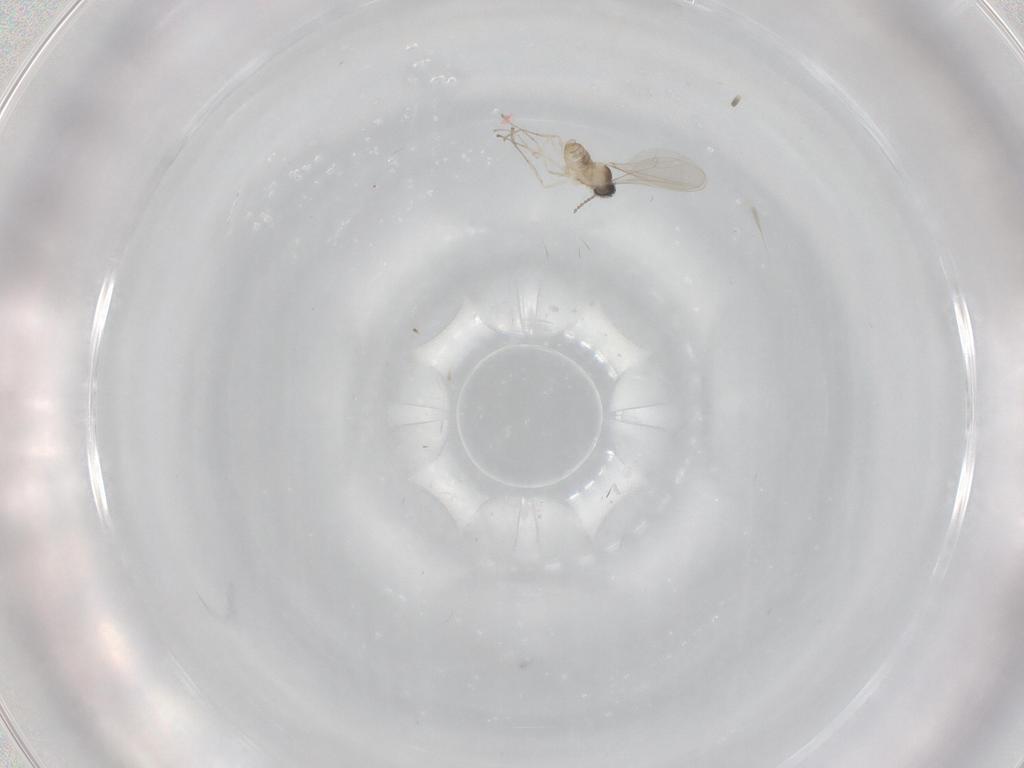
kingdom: Animalia
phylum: Arthropoda
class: Insecta
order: Diptera
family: Cecidomyiidae
